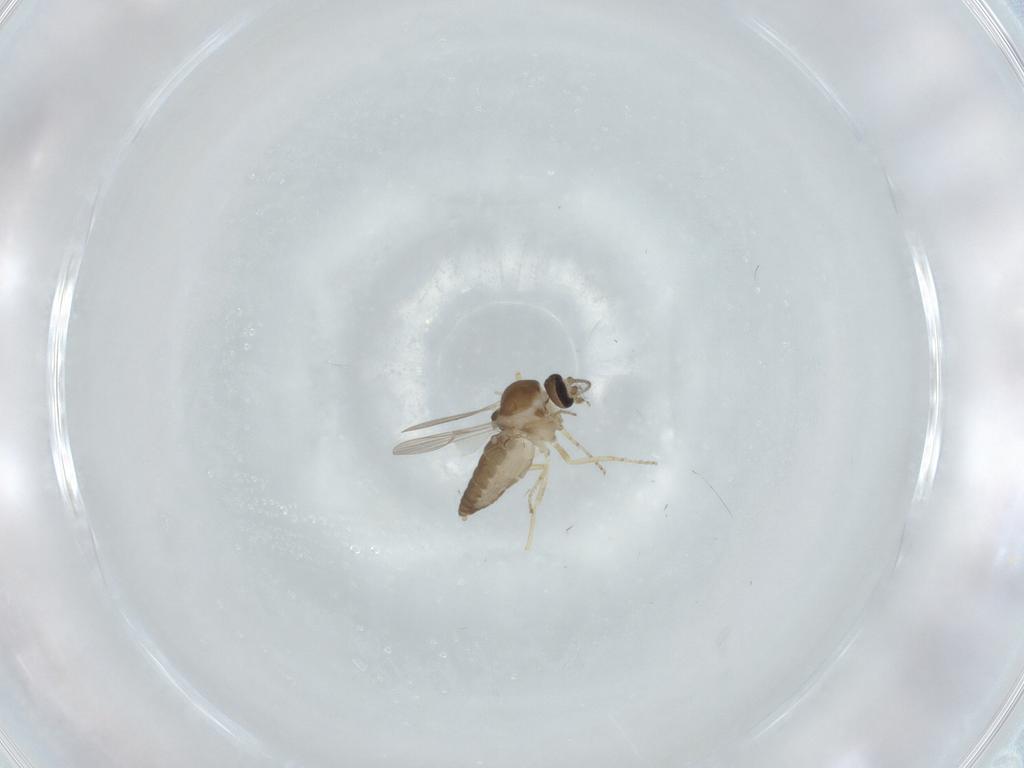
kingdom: Animalia
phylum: Arthropoda
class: Insecta
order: Diptera
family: Ceratopogonidae
